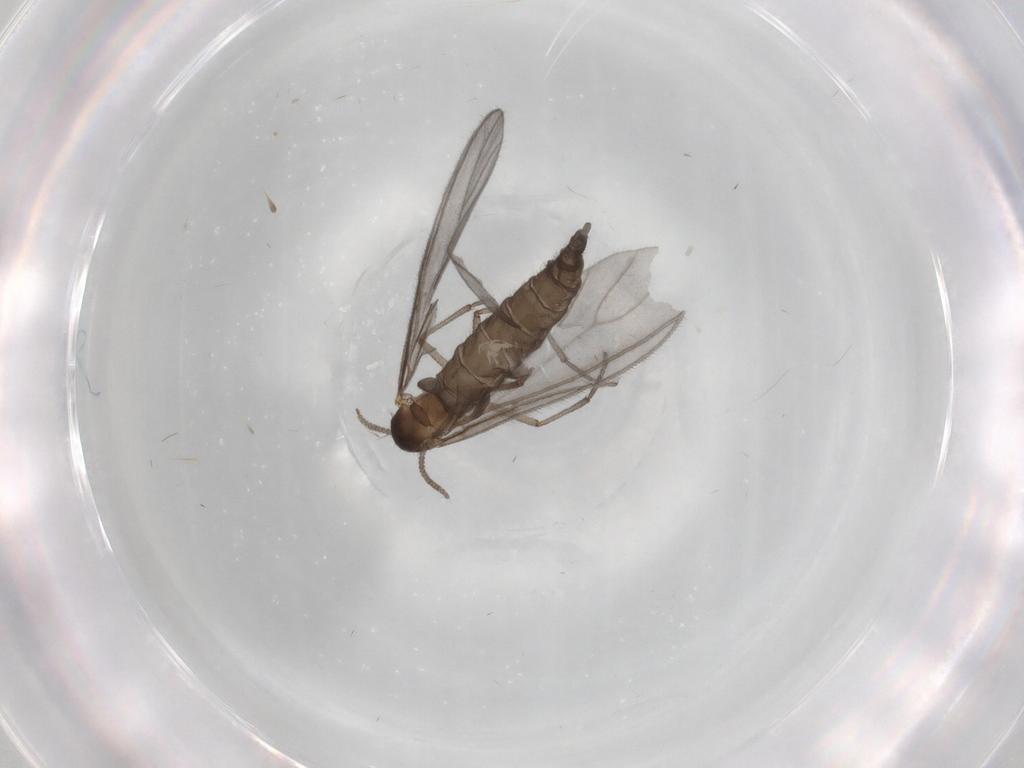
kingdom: Animalia
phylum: Arthropoda
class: Insecta
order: Diptera
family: Sciaridae
